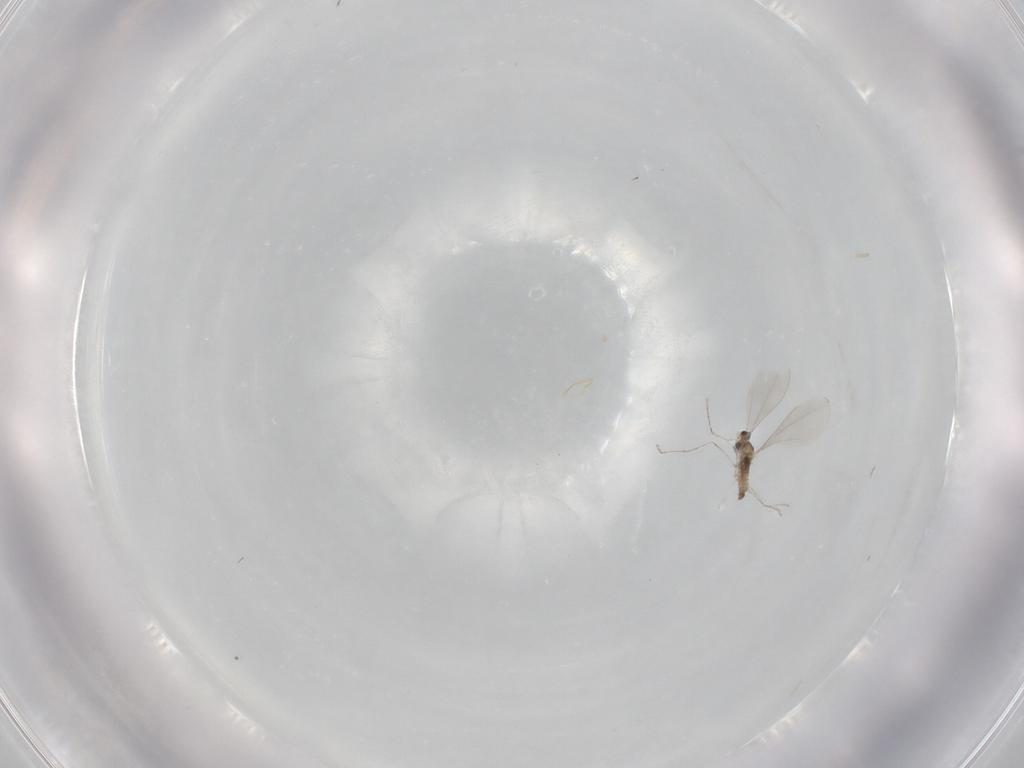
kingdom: Animalia
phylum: Arthropoda
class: Insecta
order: Diptera
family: Cecidomyiidae
